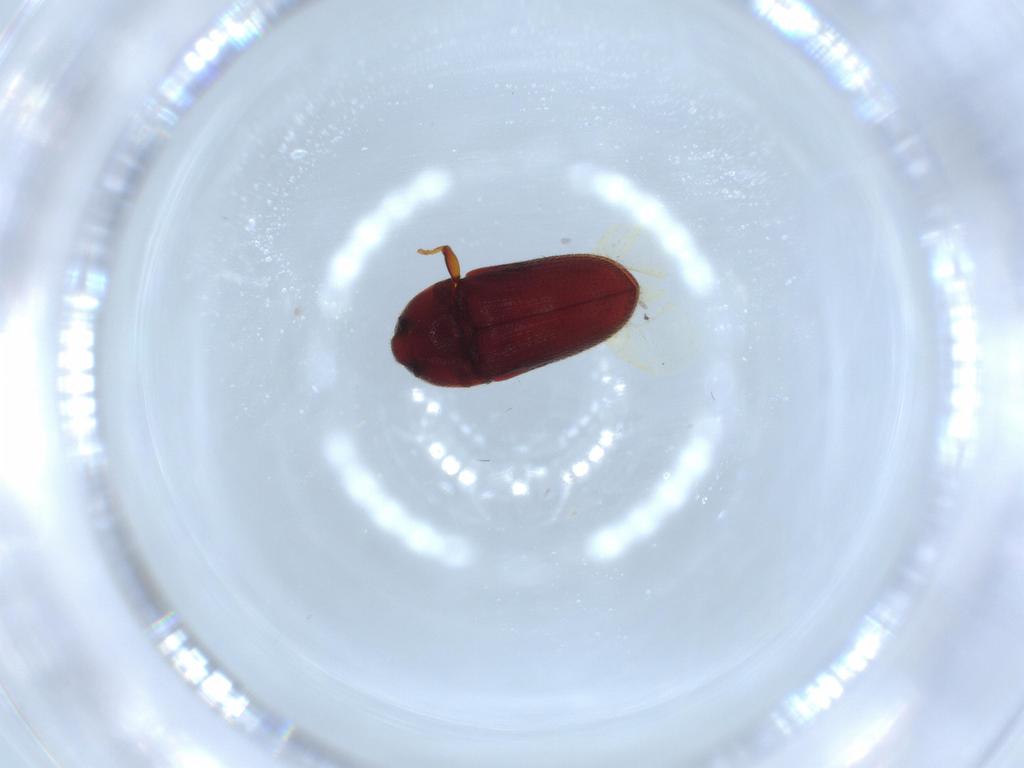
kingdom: Animalia
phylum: Arthropoda
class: Insecta
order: Coleoptera
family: Throscidae
